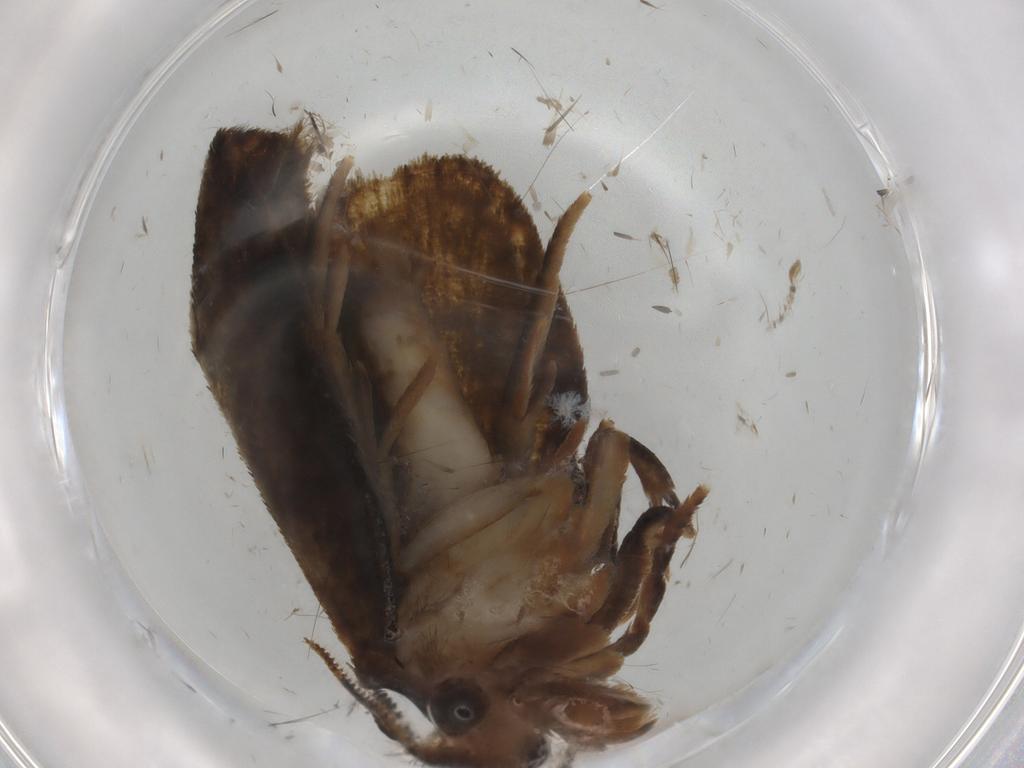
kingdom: Animalia
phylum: Arthropoda
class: Insecta
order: Lepidoptera
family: Geometridae
